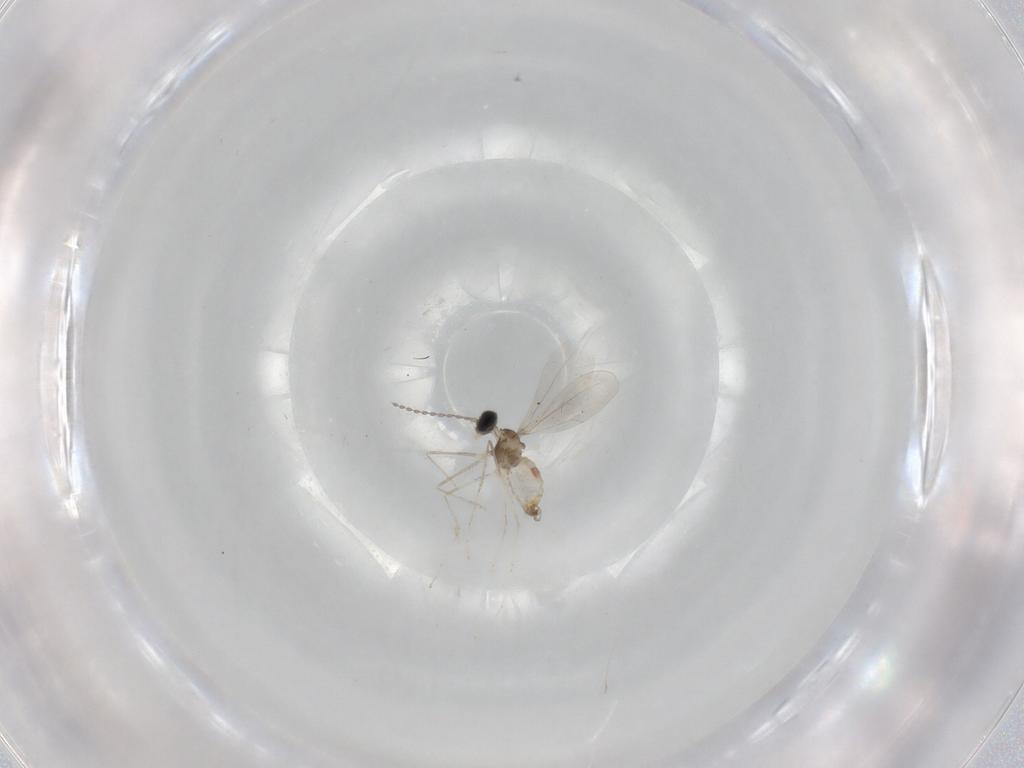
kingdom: Animalia
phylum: Arthropoda
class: Insecta
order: Diptera
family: Cecidomyiidae
